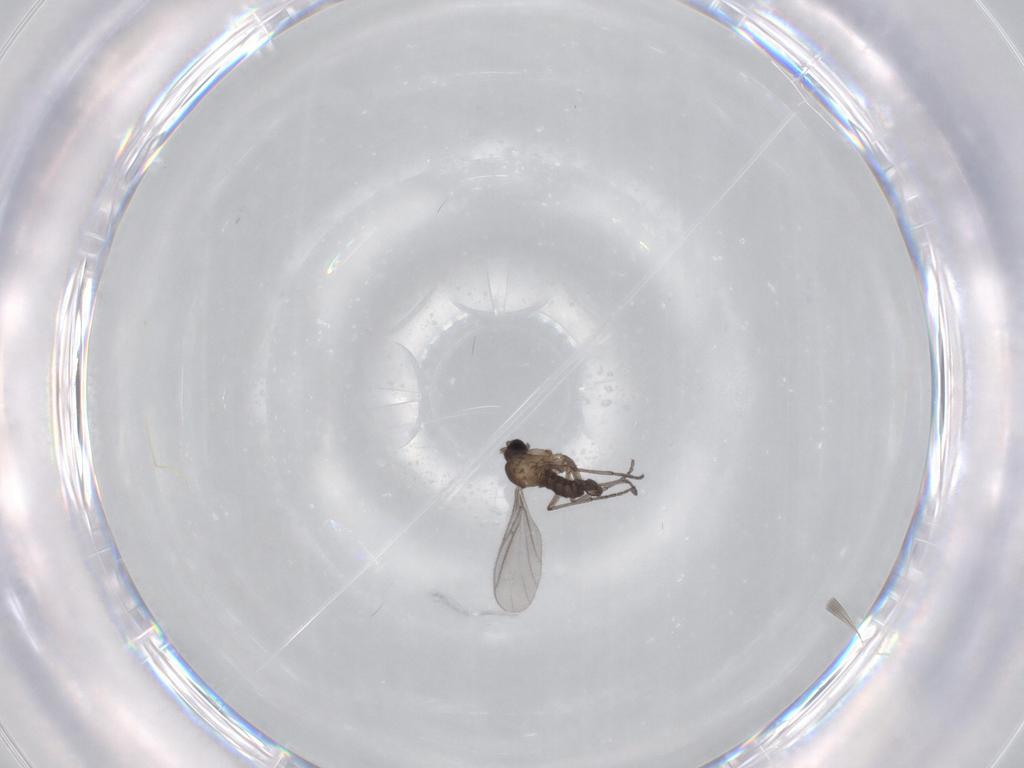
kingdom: Animalia
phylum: Arthropoda
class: Insecta
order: Diptera
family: Sciaridae
